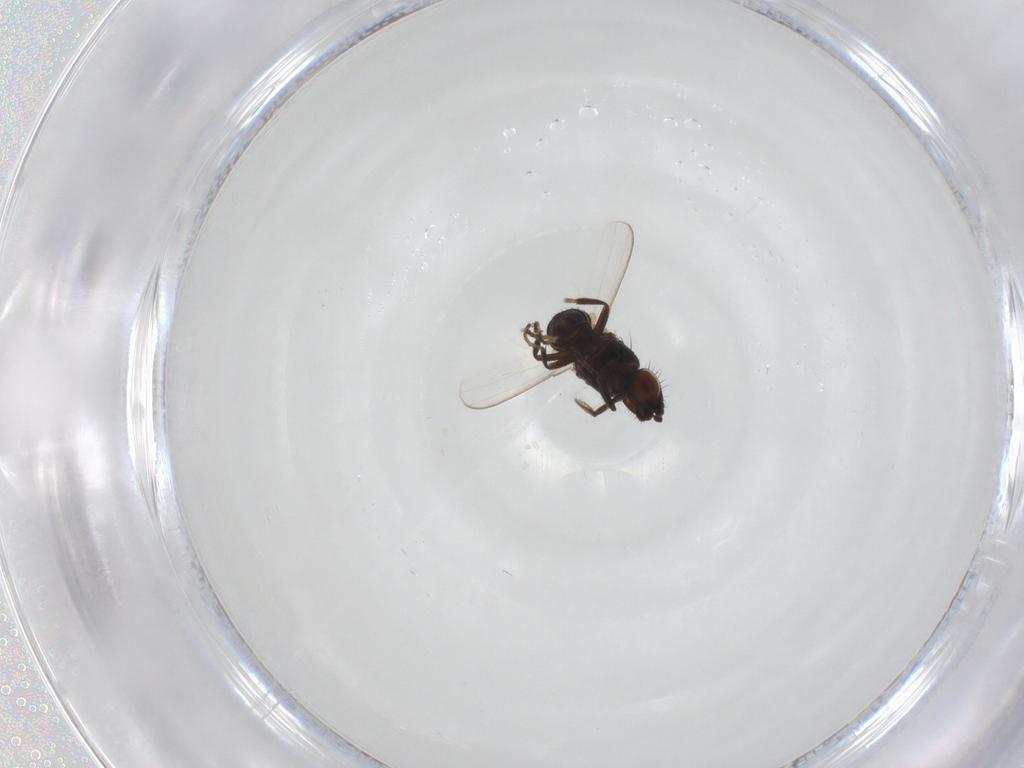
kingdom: Animalia
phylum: Arthropoda
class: Insecta
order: Diptera
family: Milichiidae
